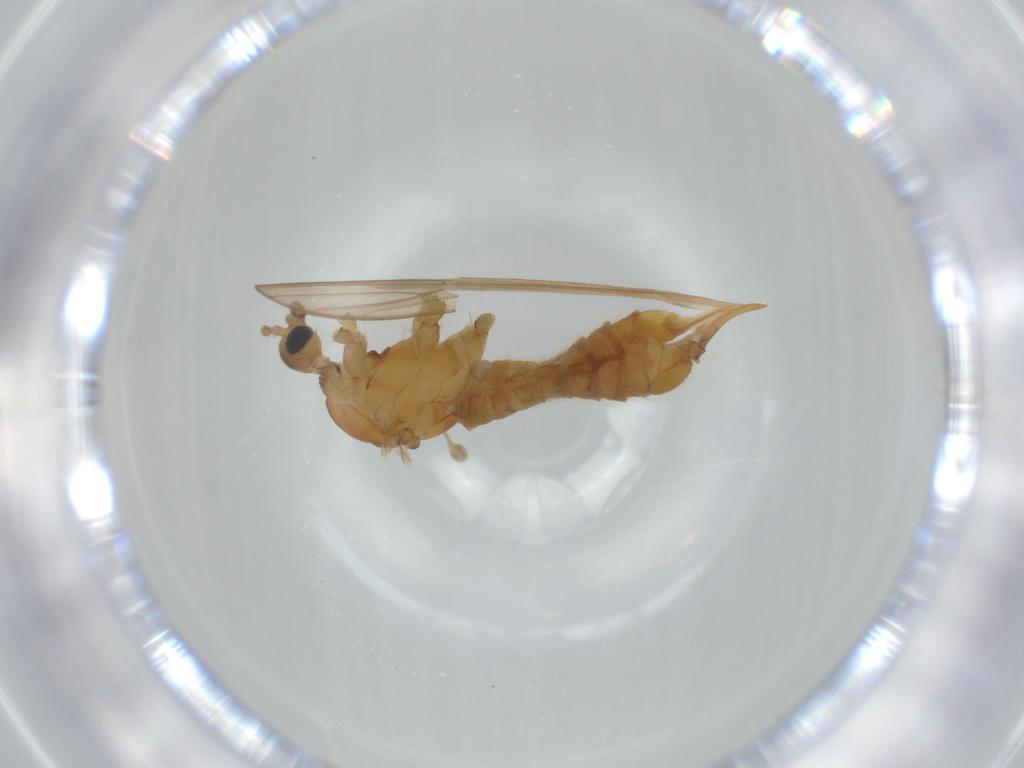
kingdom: Animalia
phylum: Arthropoda
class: Insecta
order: Diptera
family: Limoniidae
